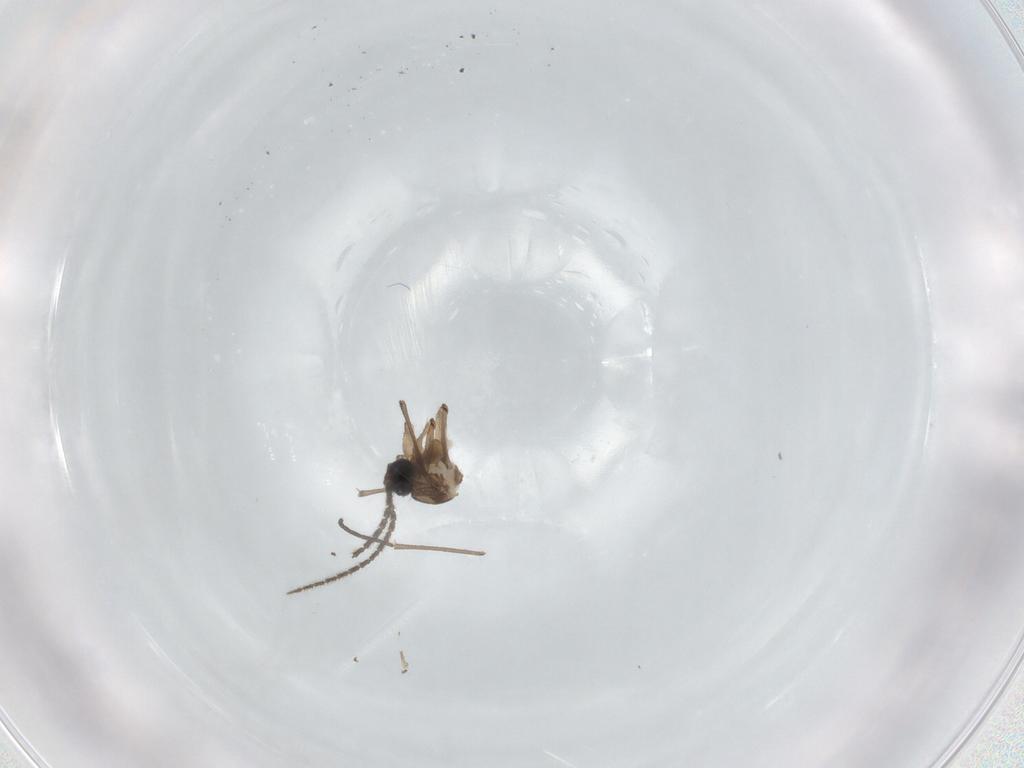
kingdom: Animalia
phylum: Arthropoda
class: Insecta
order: Diptera
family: Sciaridae
